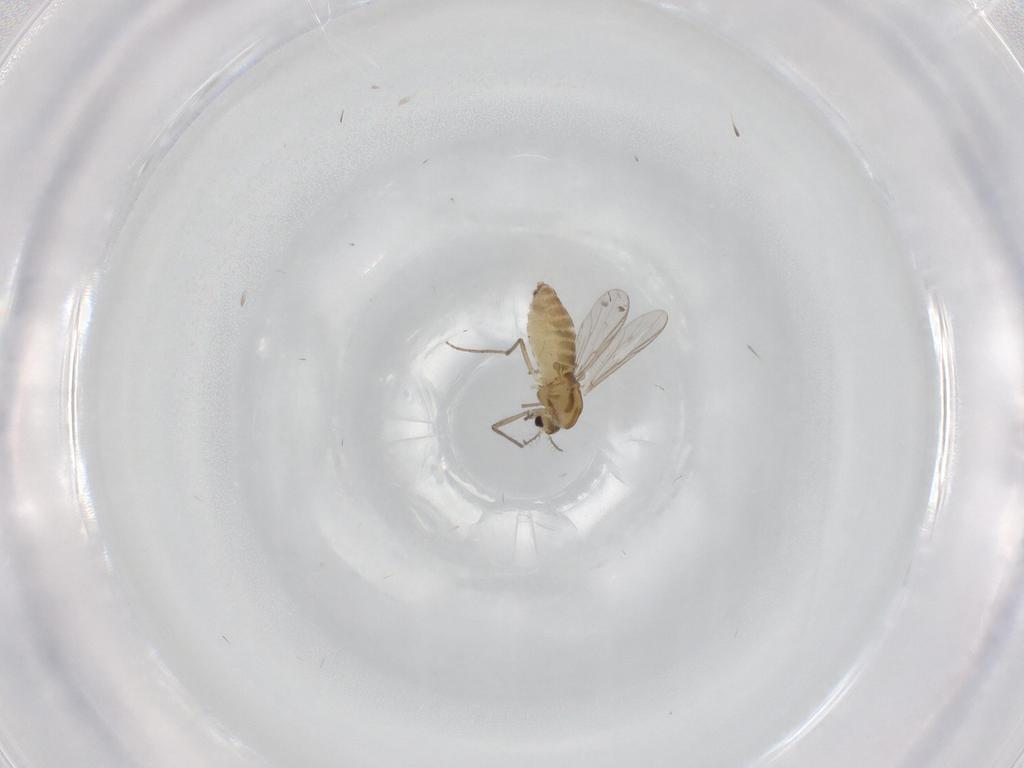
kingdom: Animalia
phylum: Arthropoda
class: Insecta
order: Diptera
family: Chironomidae
